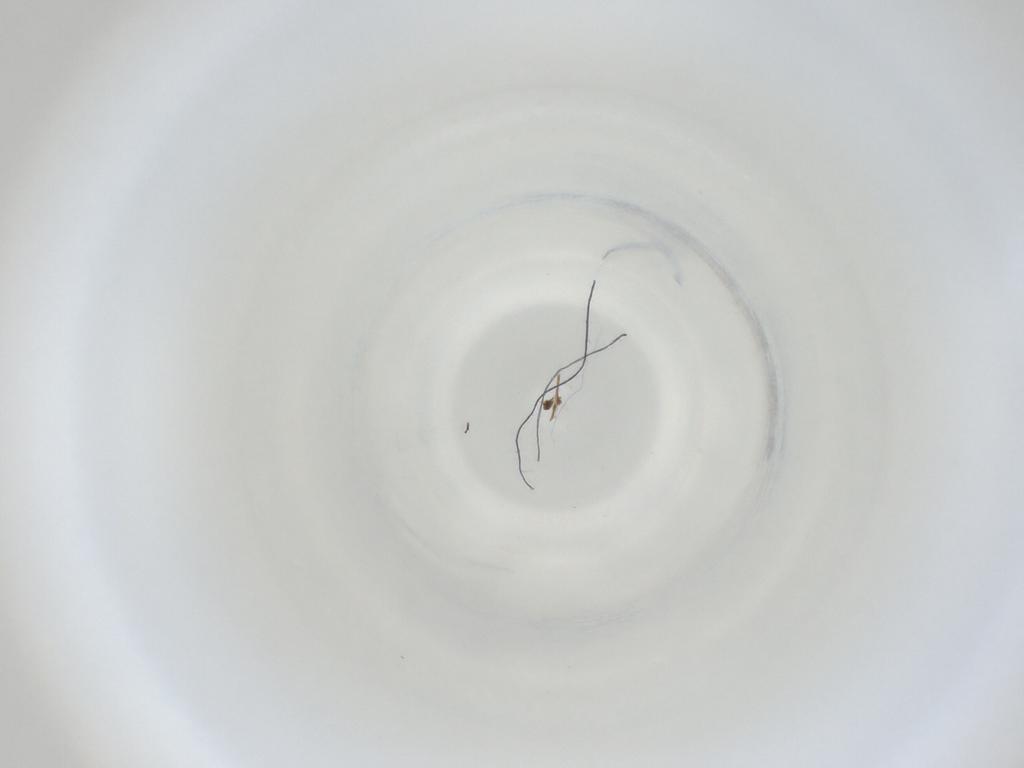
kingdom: Animalia
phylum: Arthropoda
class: Insecta
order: Diptera
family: Cecidomyiidae
